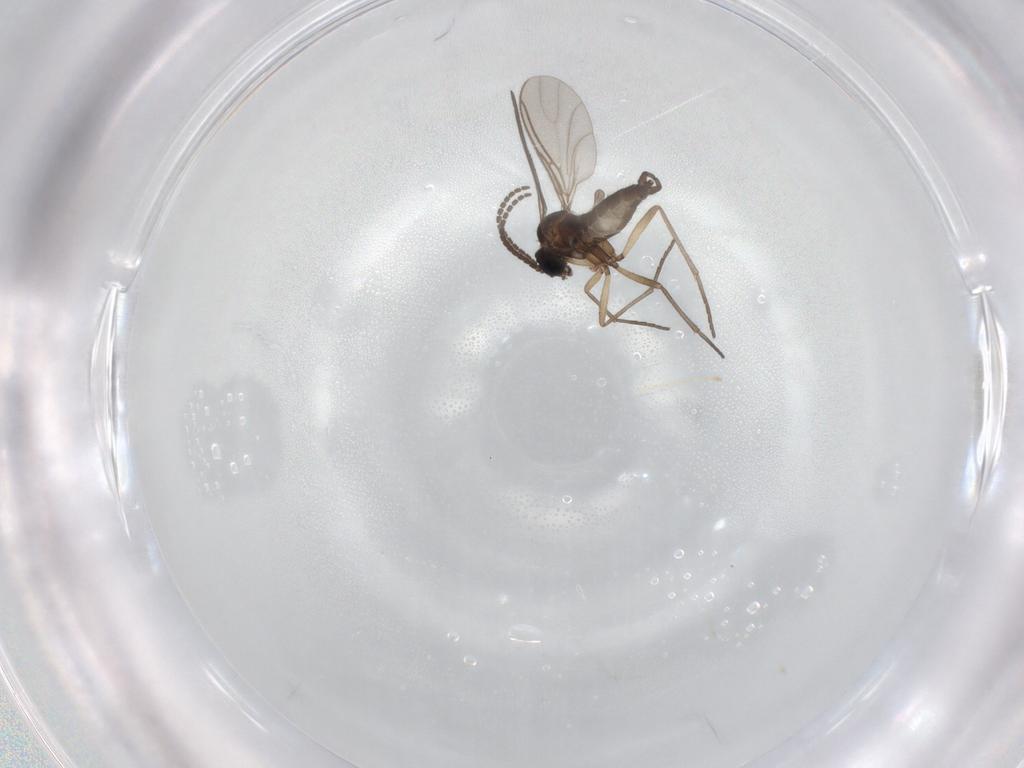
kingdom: Animalia
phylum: Arthropoda
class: Insecta
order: Diptera
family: Sciaridae
